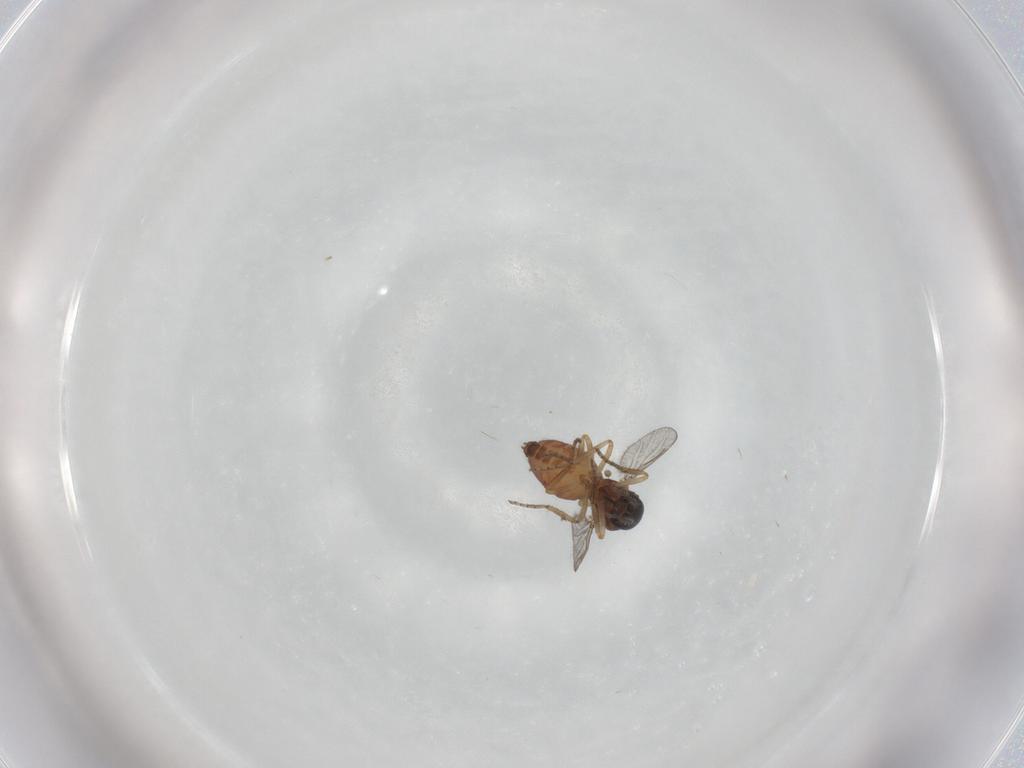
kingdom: Animalia
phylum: Arthropoda
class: Insecta
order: Diptera
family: Ceratopogonidae
